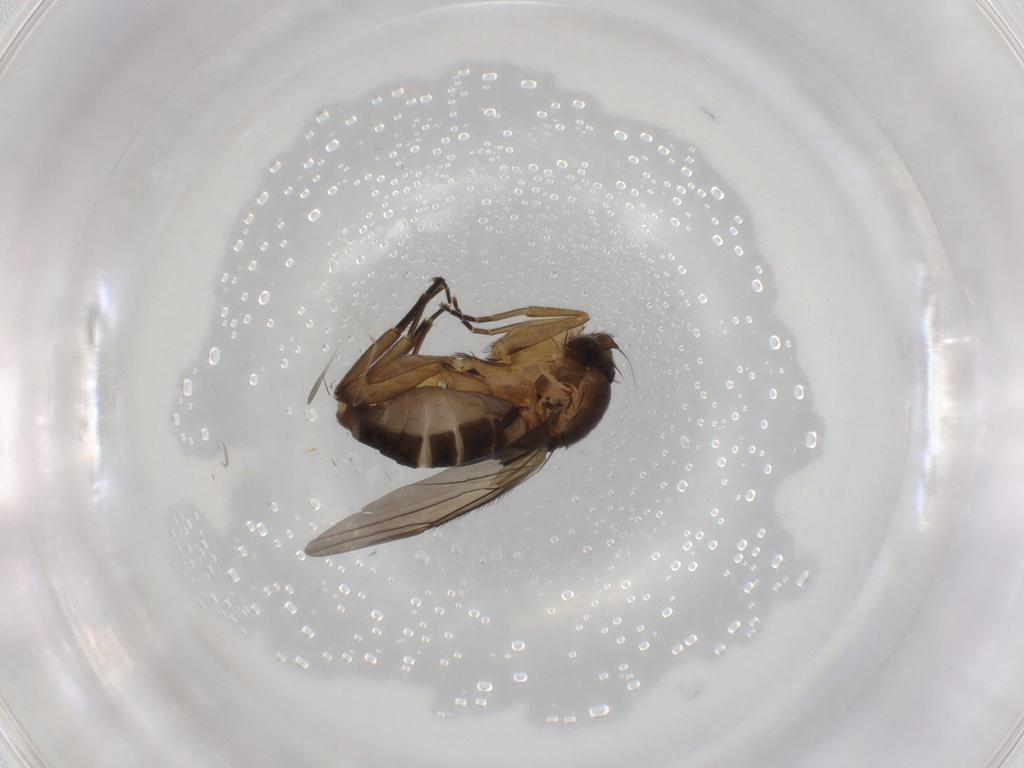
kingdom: Animalia
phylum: Arthropoda
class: Insecta
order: Diptera
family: Phoridae
